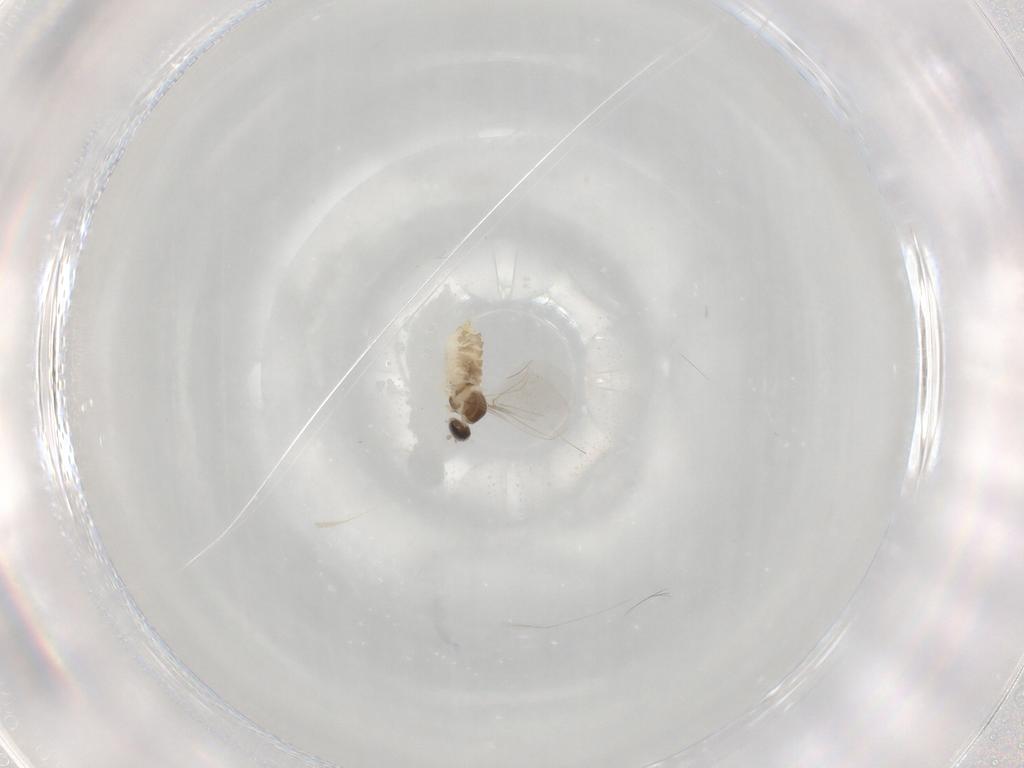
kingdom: Animalia
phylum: Arthropoda
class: Insecta
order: Diptera
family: Cecidomyiidae
